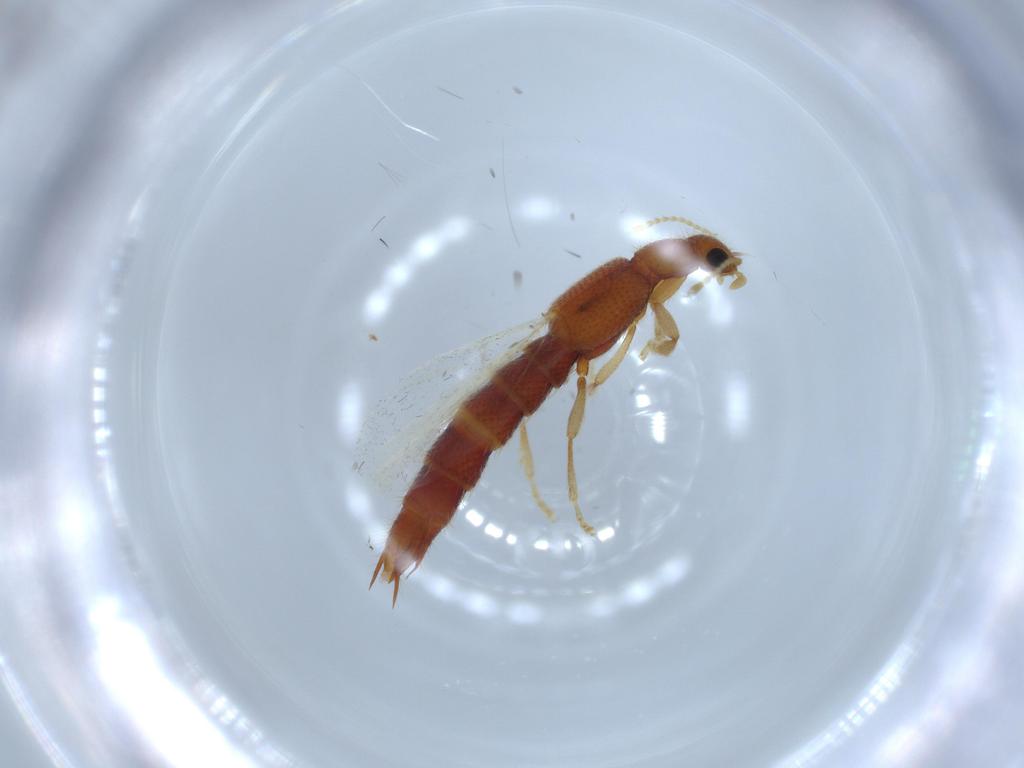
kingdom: Animalia
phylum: Arthropoda
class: Insecta
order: Coleoptera
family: Staphylinidae
